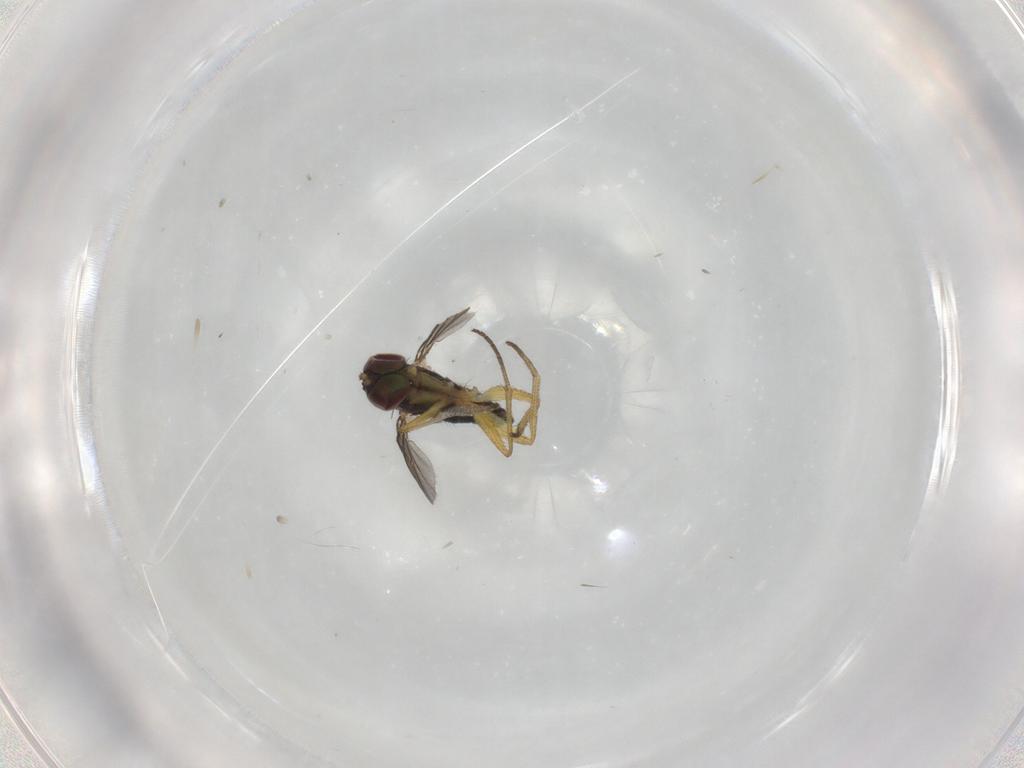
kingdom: Animalia
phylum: Arthropoda
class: Insecta
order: Diptera
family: Dolichopodidae
